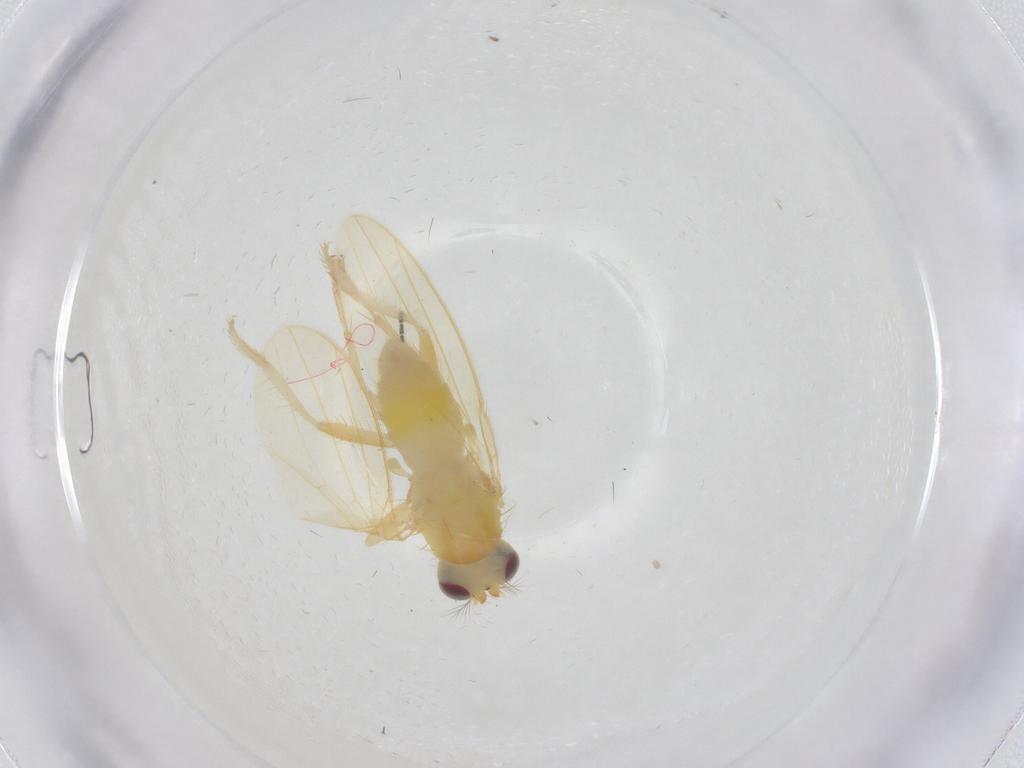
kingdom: Animalia
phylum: Arthropoda
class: Insecta
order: Diptera
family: Periscelididae
